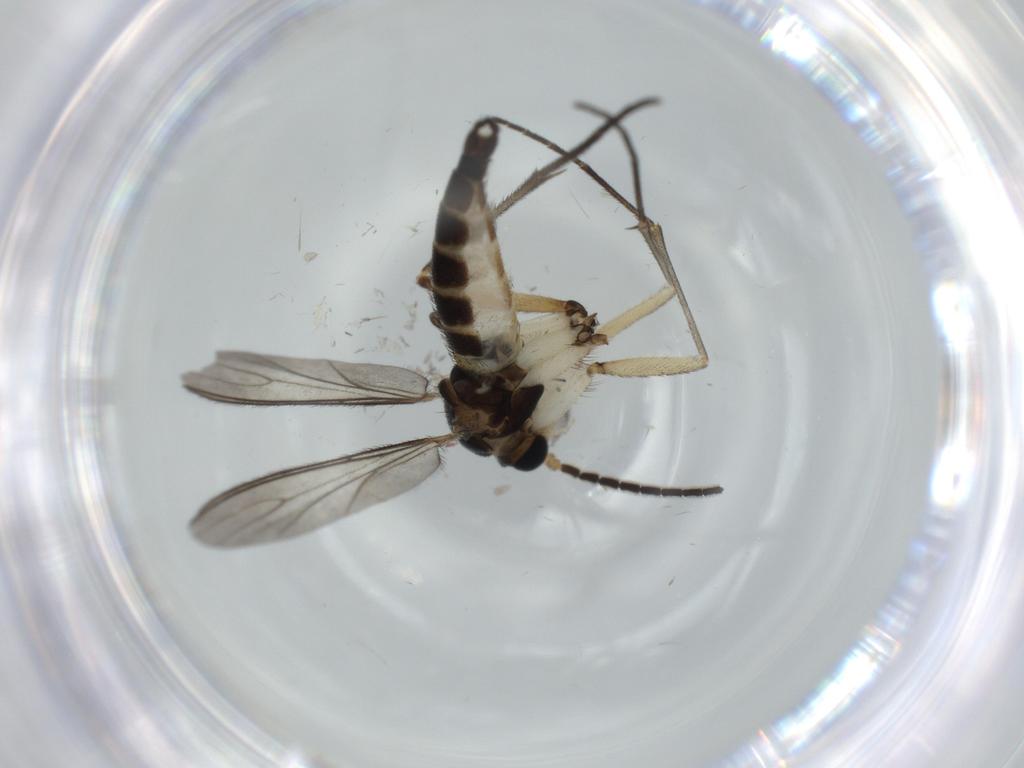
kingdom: Animalia
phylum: Arthropoda
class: Insecta
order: Diptera
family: Sciaridae
